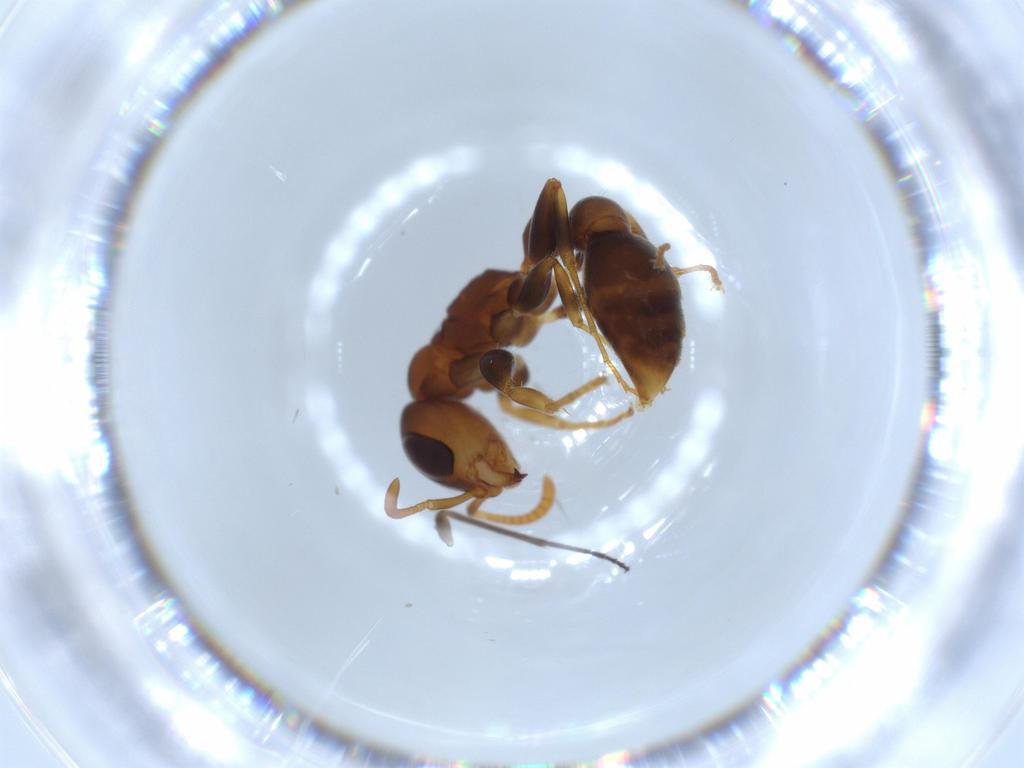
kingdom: Animalia
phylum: Arthropoda
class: Insecta
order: Hymenoptera
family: Formicidae
